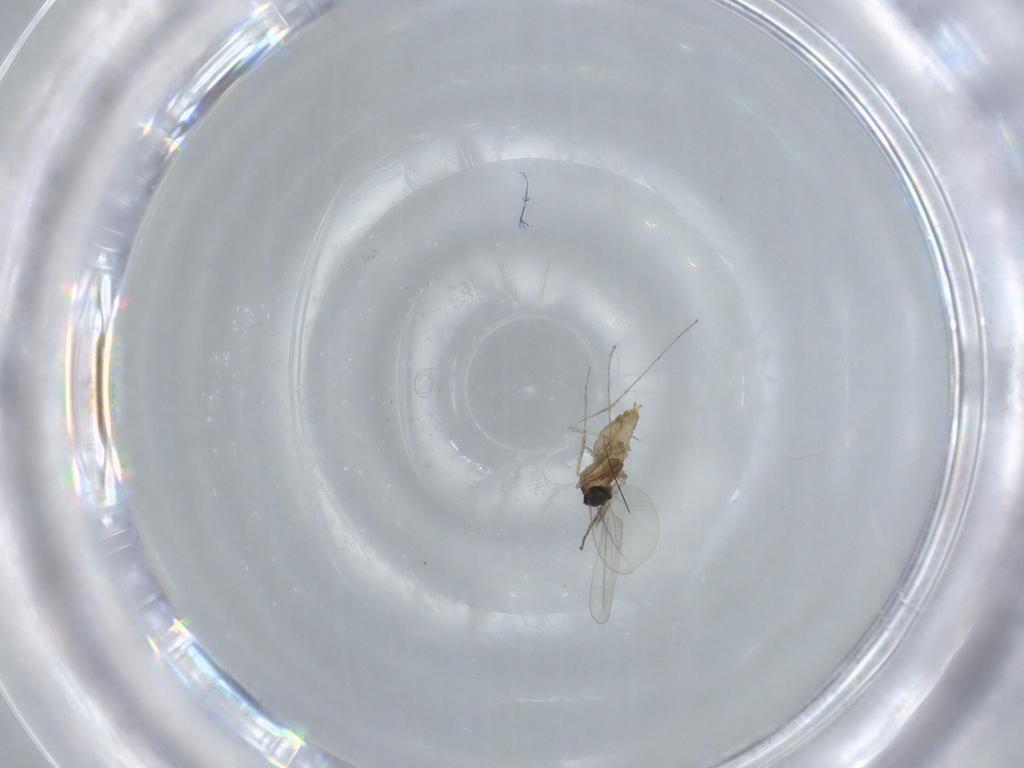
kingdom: Animalia
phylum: Arthropoda
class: Insecta
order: Diptera
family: Cecidomyiidae
